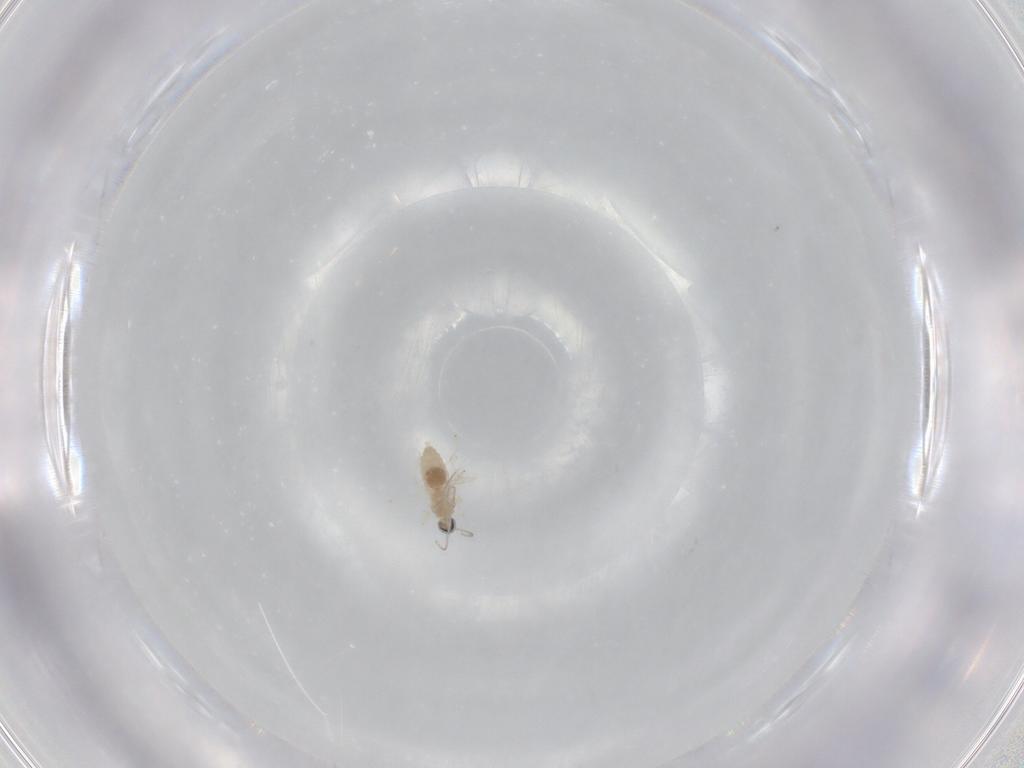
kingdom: Animalia
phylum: Arthropoda
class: Insecta
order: Diptera
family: Cecidomyiidae
